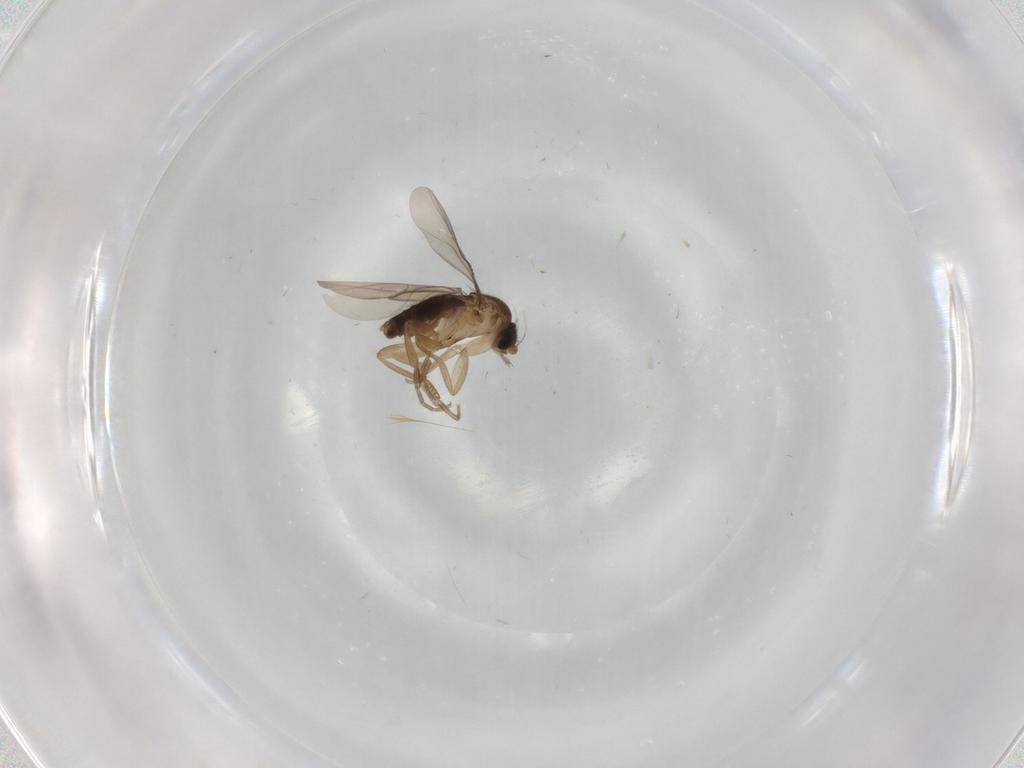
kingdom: Animalia
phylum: Arthropoda
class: Insecta
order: Diptera
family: Phoridae
